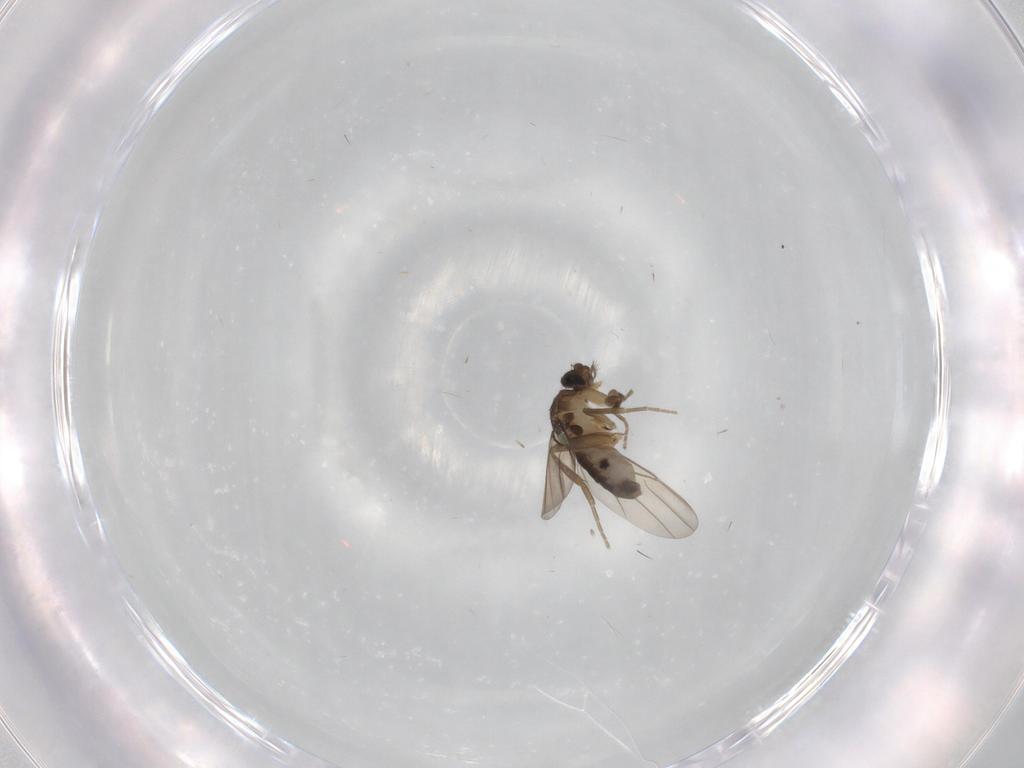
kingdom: Animalia
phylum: Arthropoda
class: Insecta
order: Diptera
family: Phoridae
